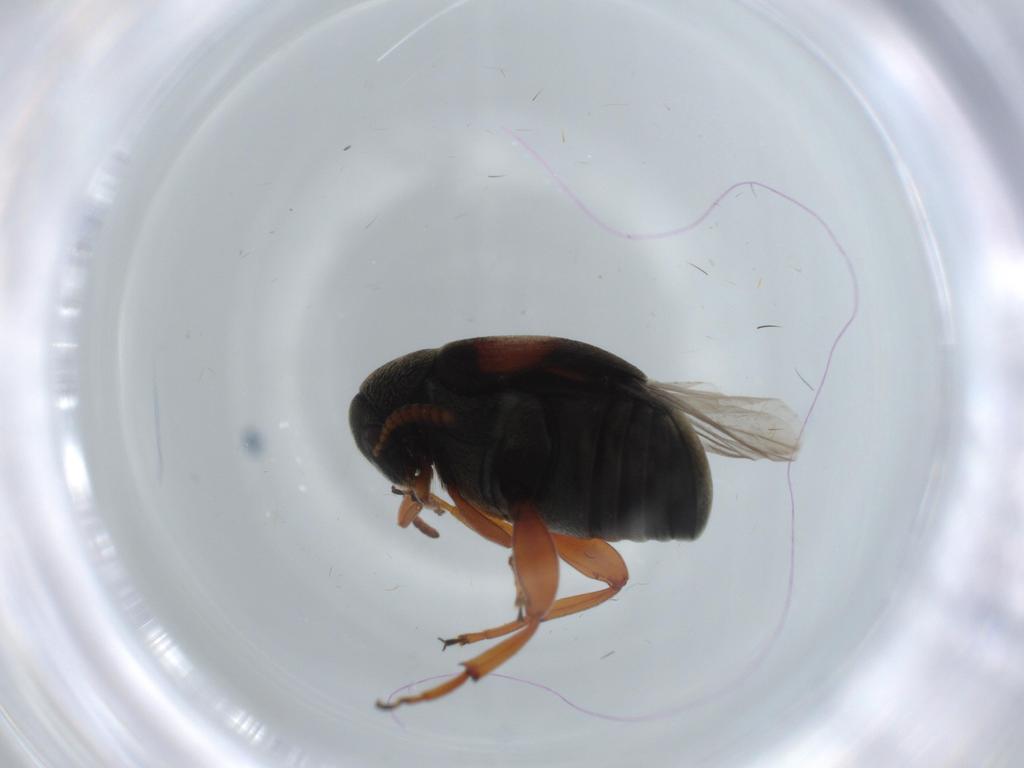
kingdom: Animalia
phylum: Arthropoda
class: Insecta
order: Coleoptera
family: Chrysomelidae
